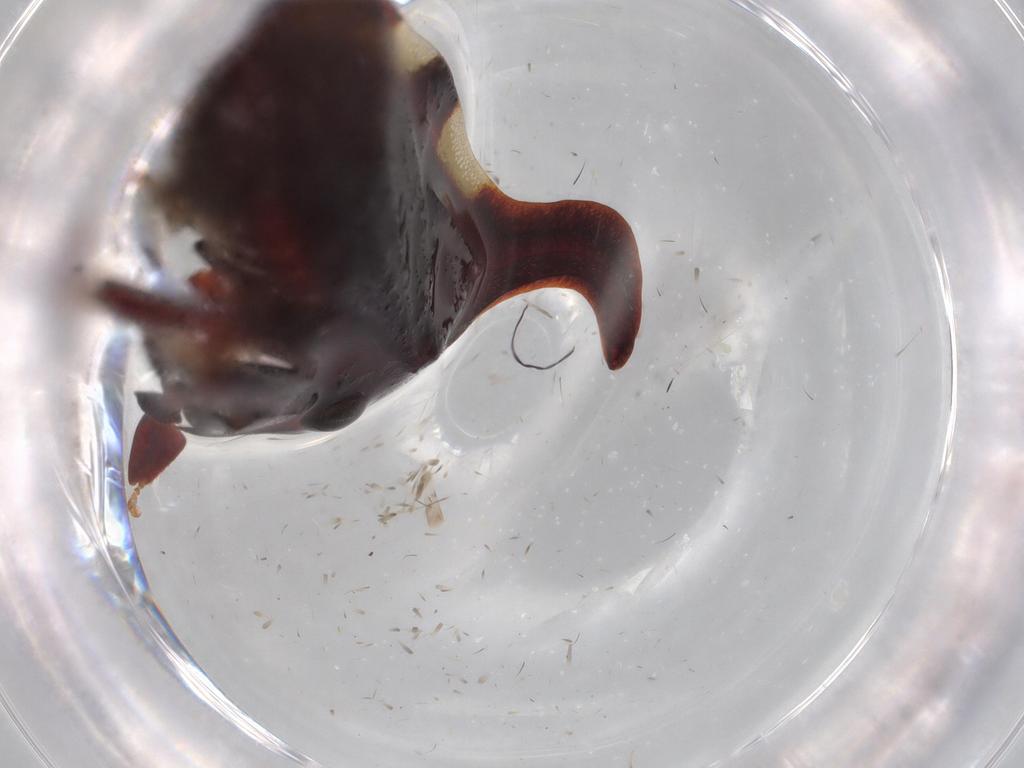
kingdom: Animalia
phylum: Arthropoda
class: Insecta
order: Hemiptera
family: Membracidae
